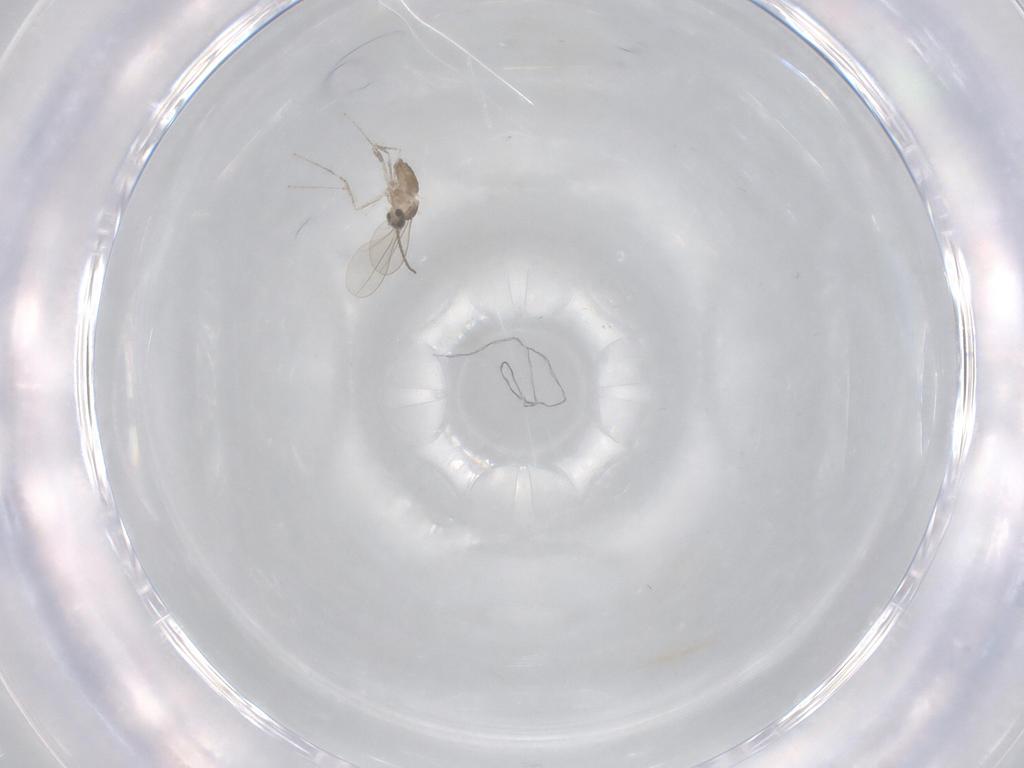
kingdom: Animalia
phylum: Arthropoda
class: Insecta
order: Diptera
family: Cecidomyiidae
